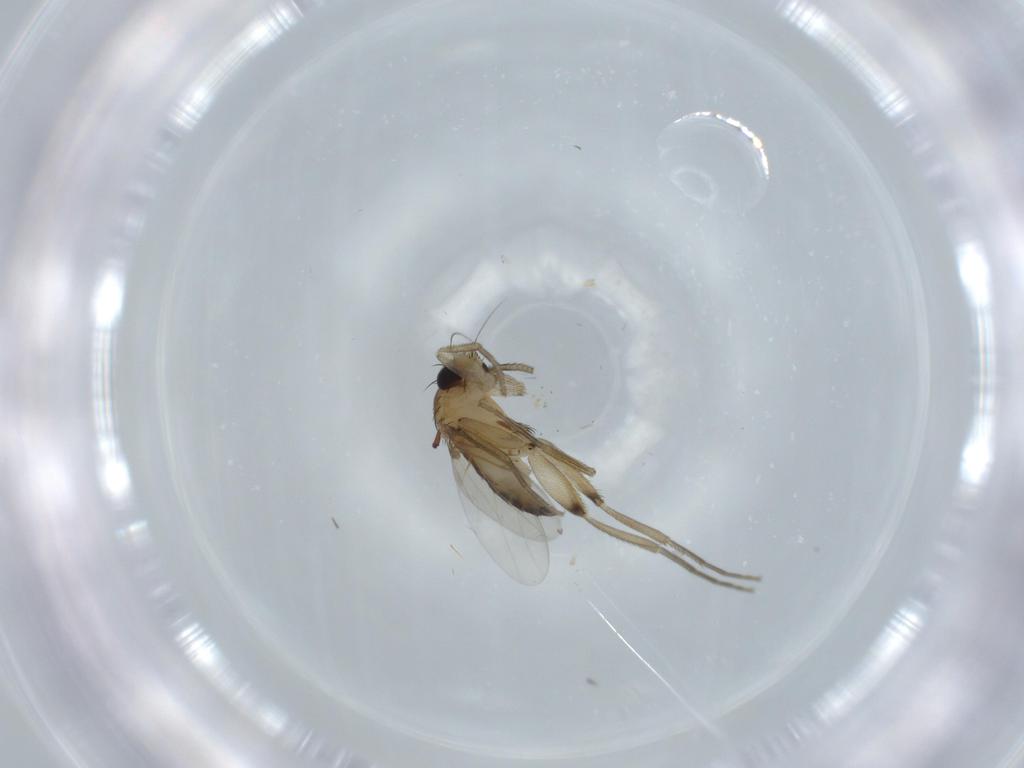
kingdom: Animalia
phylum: Arthropoda
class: Insecta
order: Diptera
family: Phoridae
